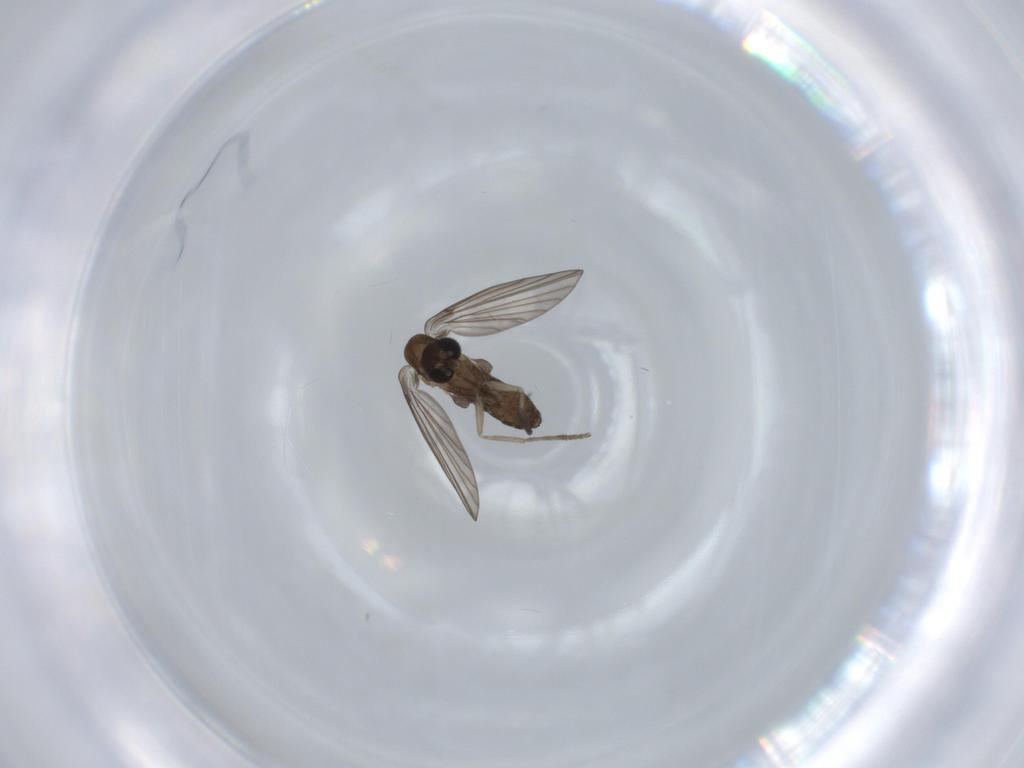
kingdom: Animalia
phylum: Arthropoda
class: Insecta
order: Diptera
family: Psychodidae
